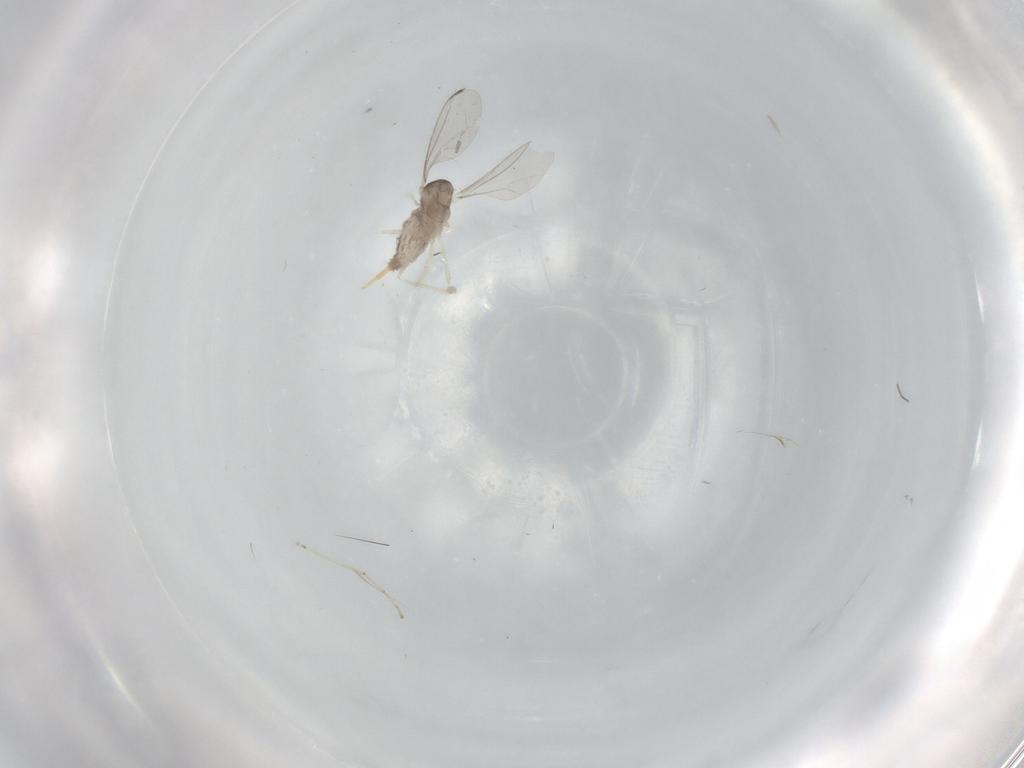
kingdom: Animalia
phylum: Arthropoda
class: Insecta
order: Diptera
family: Cecidomyiidae
